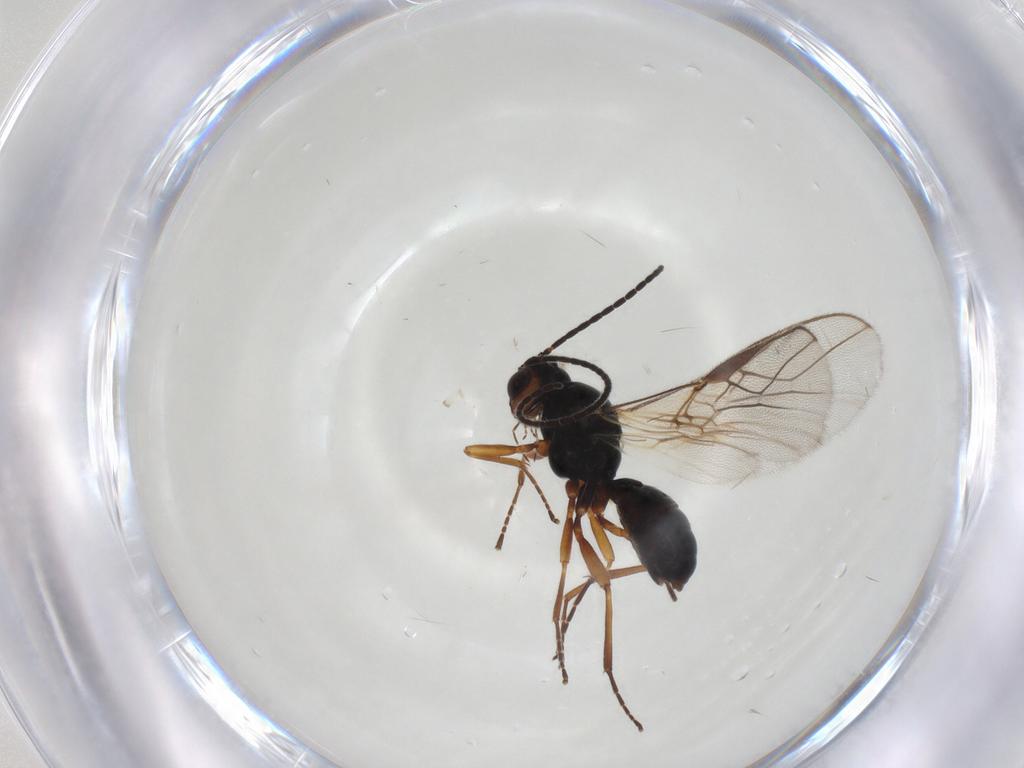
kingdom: Animalia
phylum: Arthropoda
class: Insecta
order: Hymenoptera
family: Braconidae
